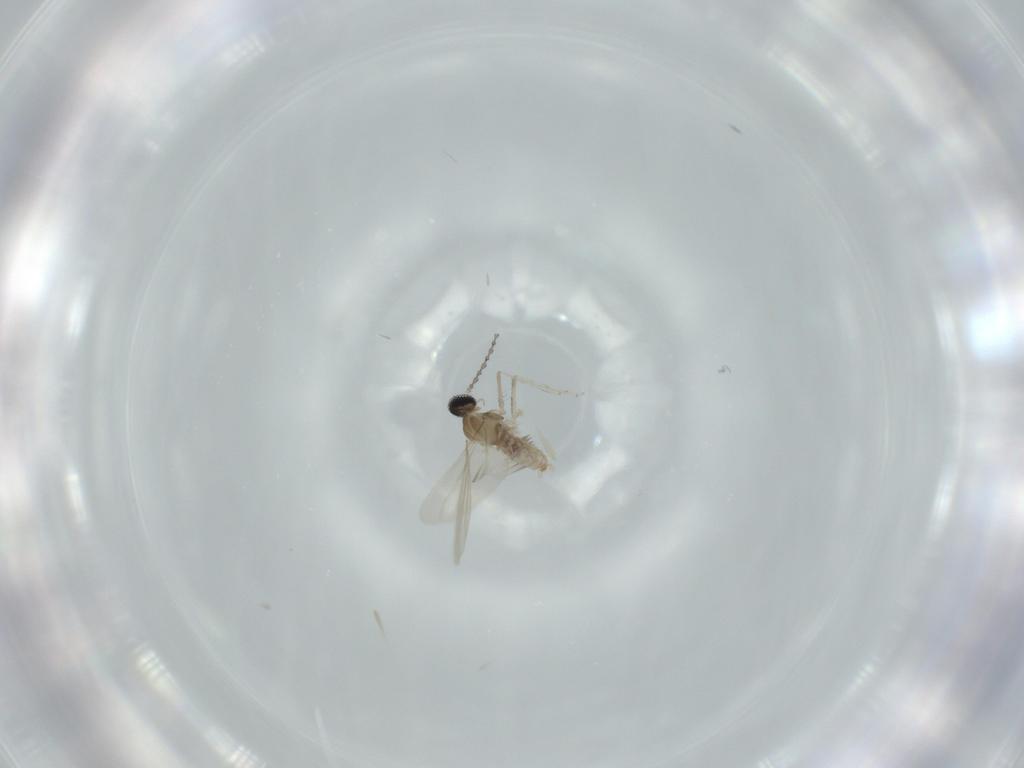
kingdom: Animalia
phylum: Arthropoda
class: Insecta
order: Diptera
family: Cecidomyiidae
